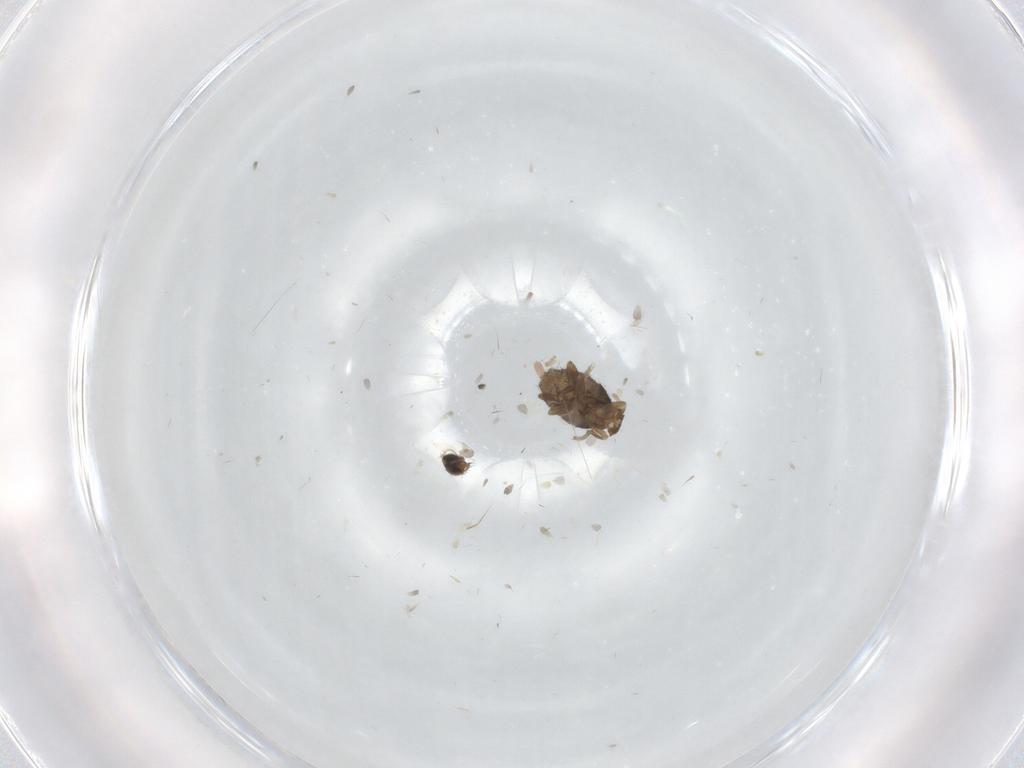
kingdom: Animalia
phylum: Arthropoda
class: Insecta
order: Diptera
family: Limoniidae
